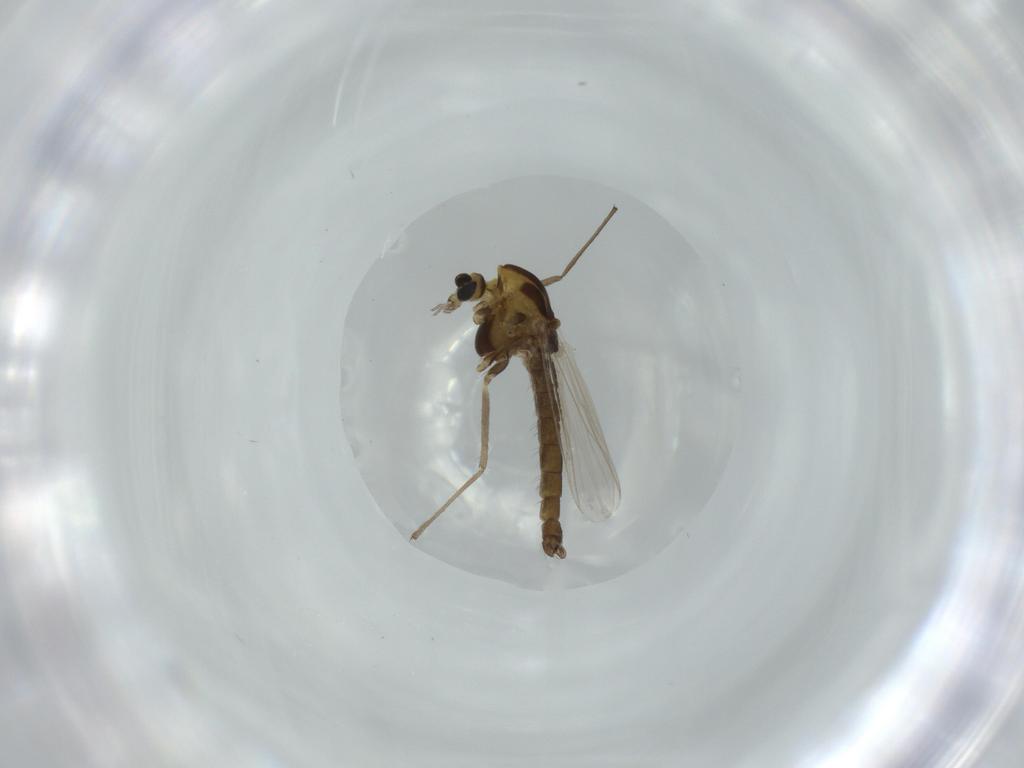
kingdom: Animalia
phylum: Arthropoda
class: Insecta
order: Diptera
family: Chironomidae
